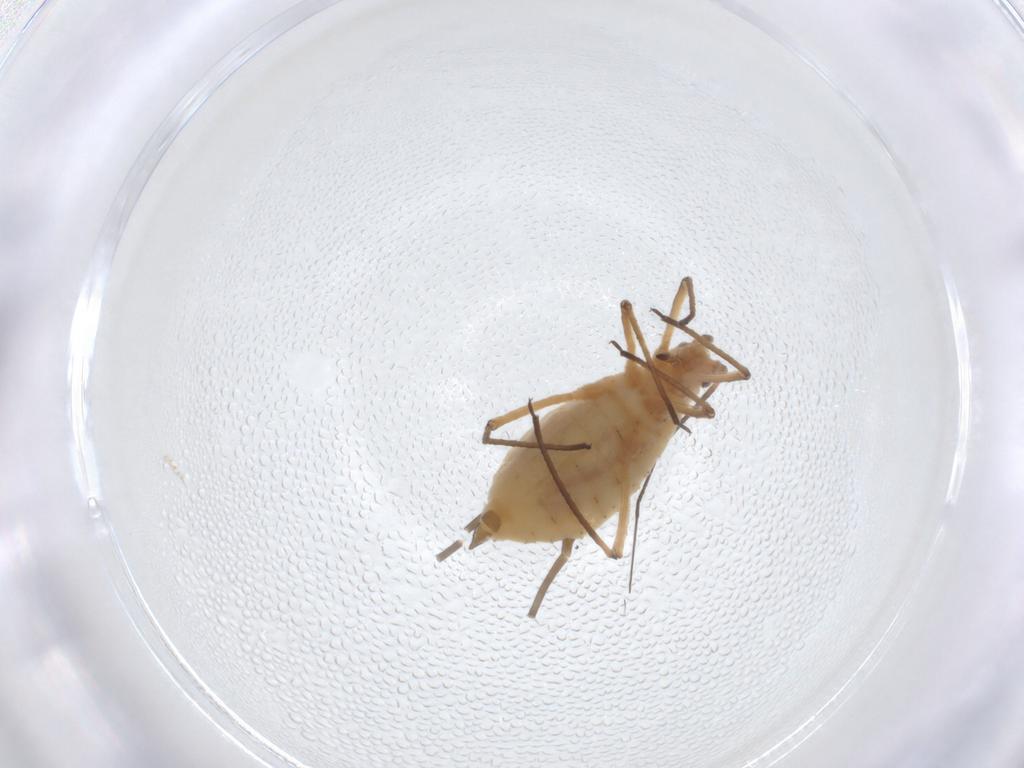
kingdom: Animalia
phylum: Arthropoda
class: Insecta
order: Hemiptera
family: Aphididae
